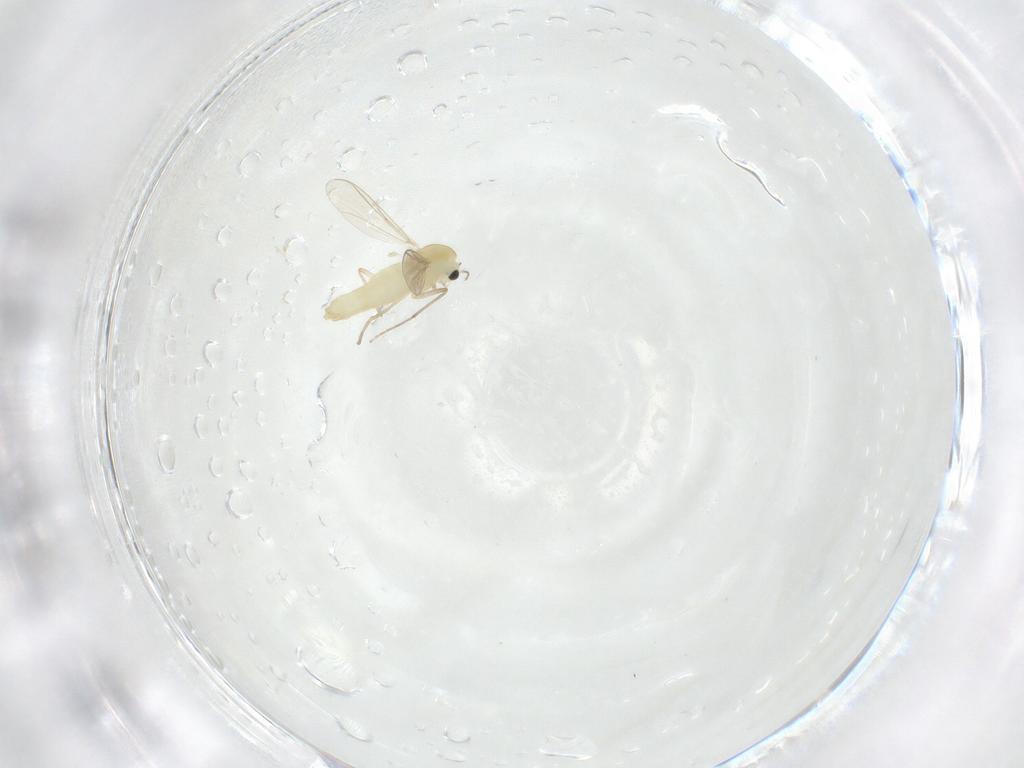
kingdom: Animalia
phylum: Arthropoda
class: Insecta
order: Diptera
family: Chironomidae
